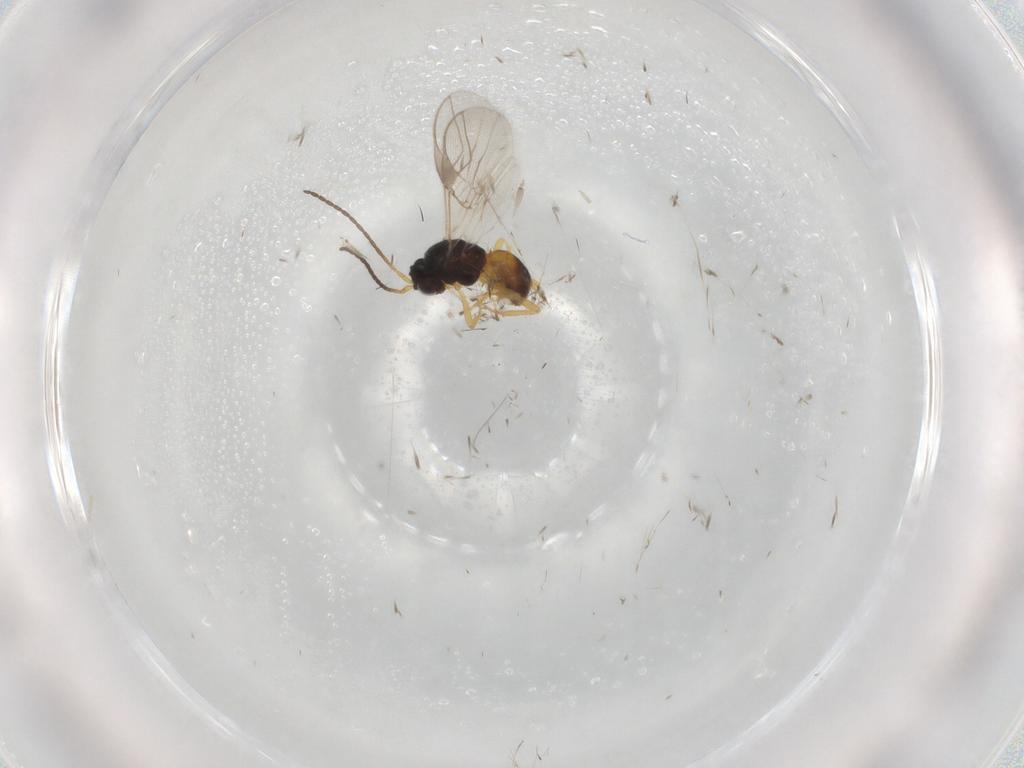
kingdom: Animalia
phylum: Arthropoda
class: Insecta
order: Hymenoptera
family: Braconidae
